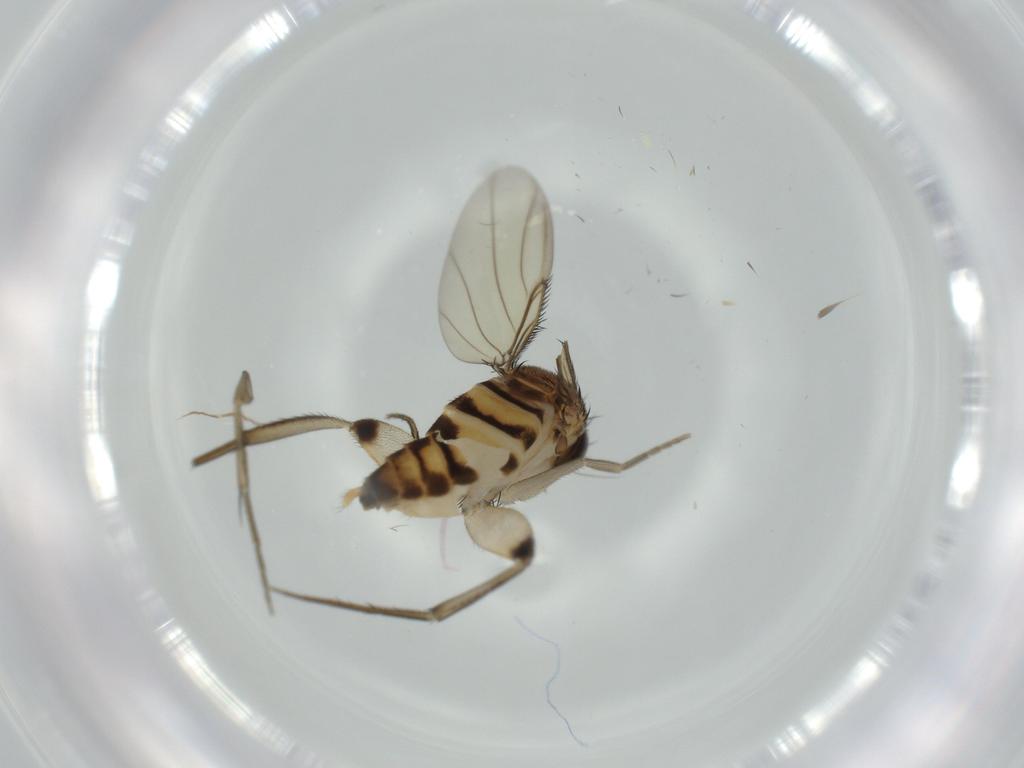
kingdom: Animalia
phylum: Arthropoda
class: Insecta
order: Diptera
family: Phoridae
